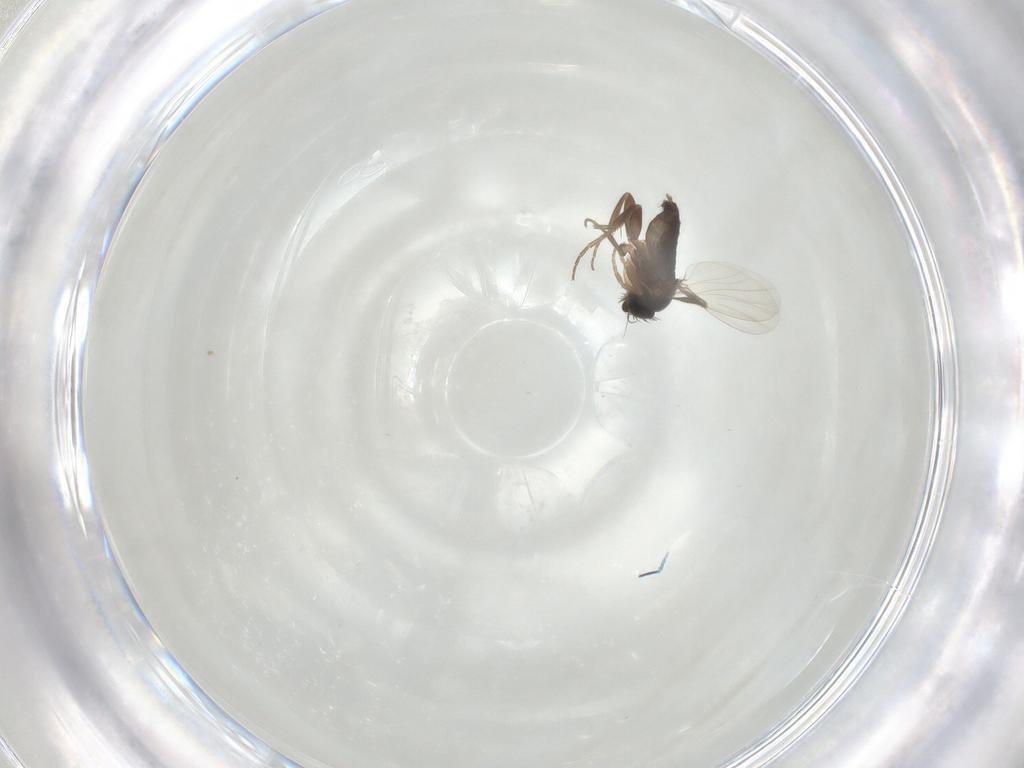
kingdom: Animalia
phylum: Arthropoda
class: Insecta
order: Diptera
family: Phoridae
